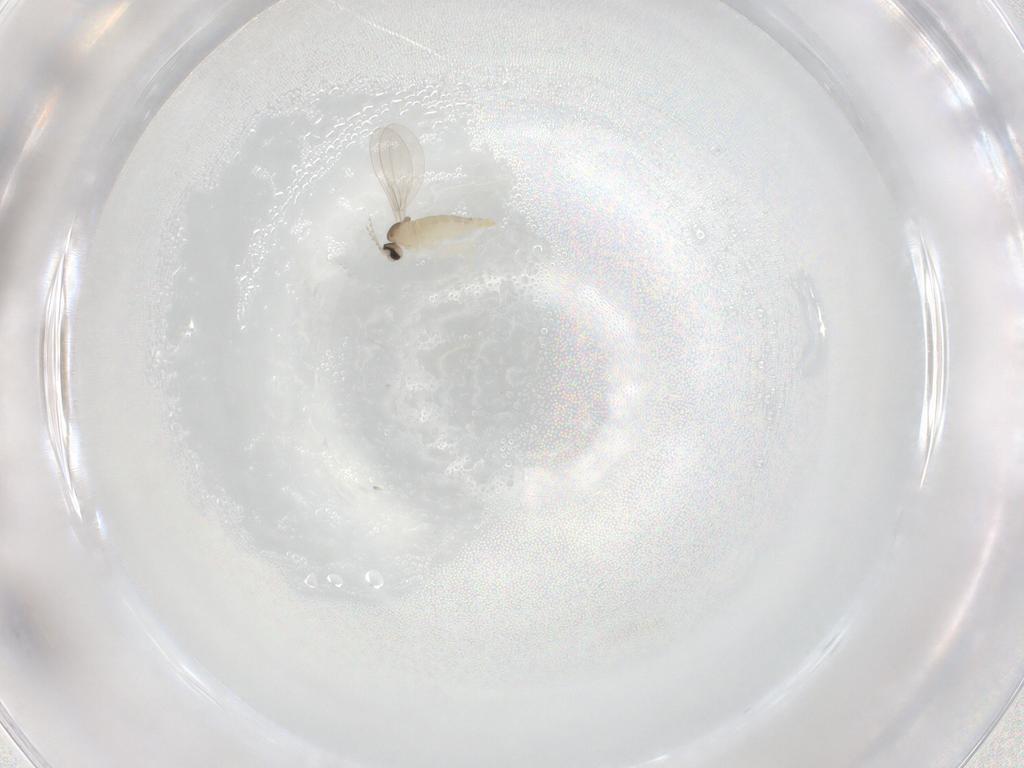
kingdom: Animalia
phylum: Arthropoda
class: Insecta
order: Diptera
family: Cecidomyiidae
